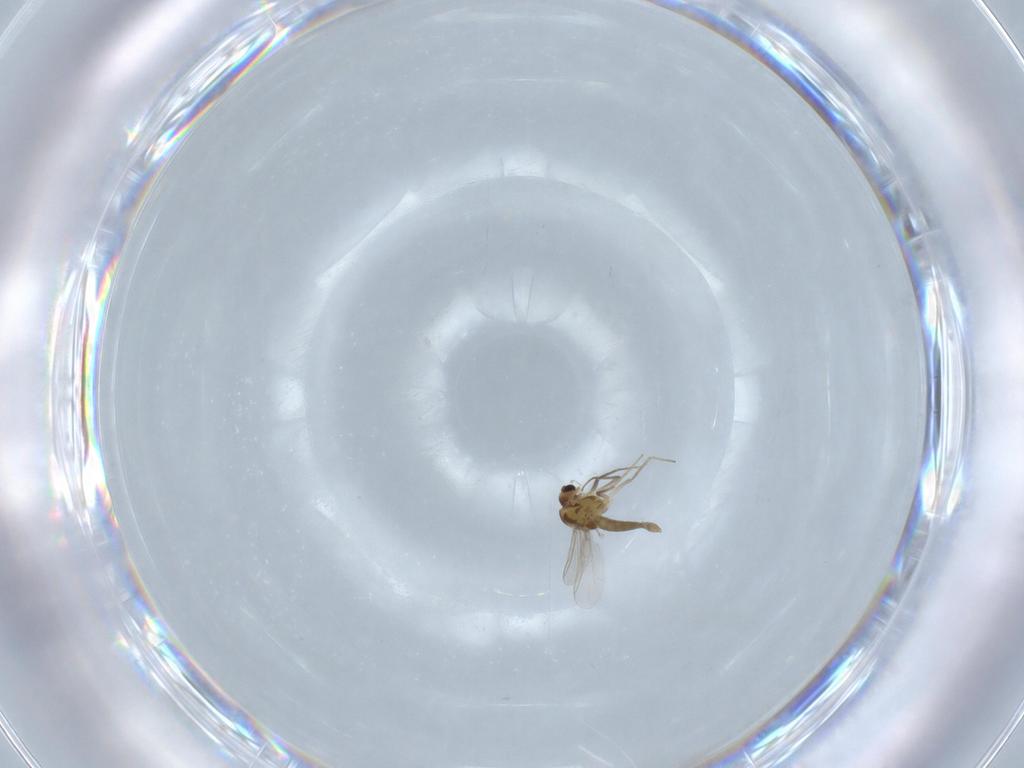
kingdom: Animalia
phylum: Arthropoda
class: Insecta
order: Diptera
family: Chironomidae
